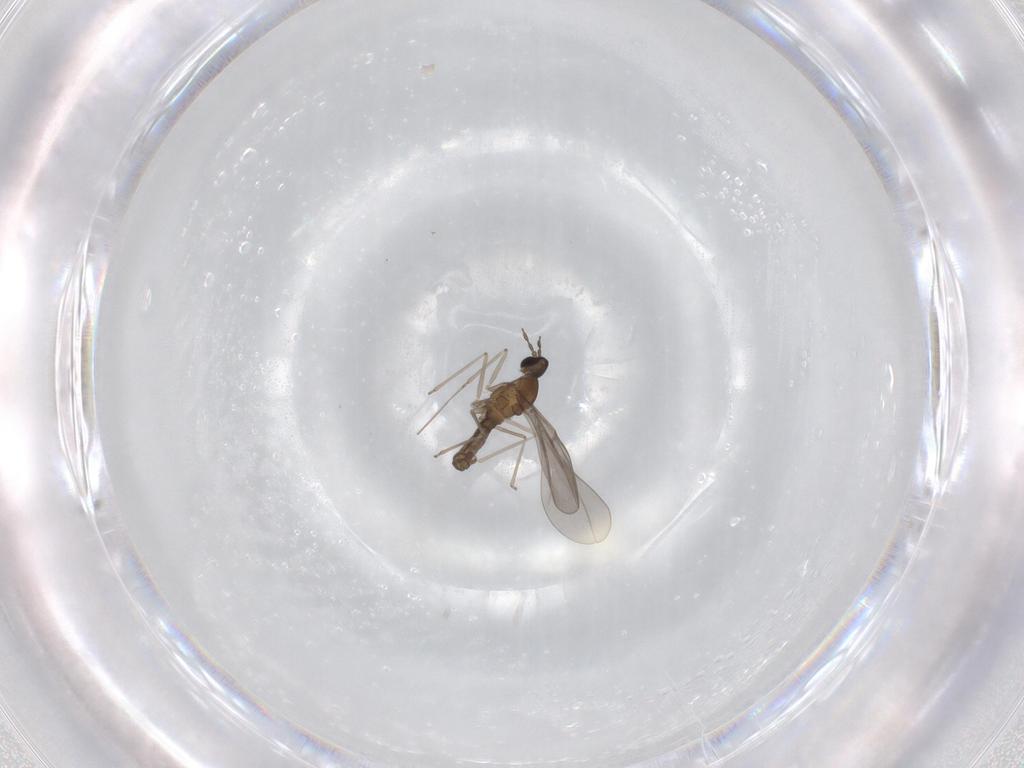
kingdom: Animalia
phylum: Arthropoda
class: Insecta
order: Diptera
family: Cecidomyiidae
